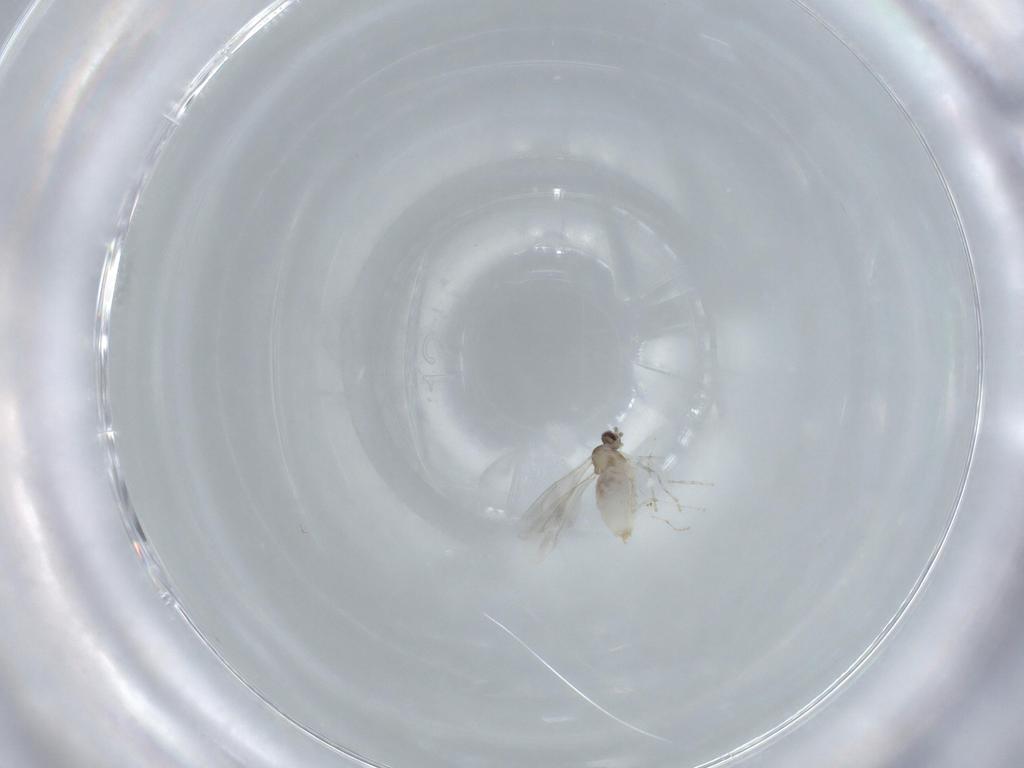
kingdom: Animalia
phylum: Arthropoda
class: Insecta
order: Diptera
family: Cecidomyiidae
